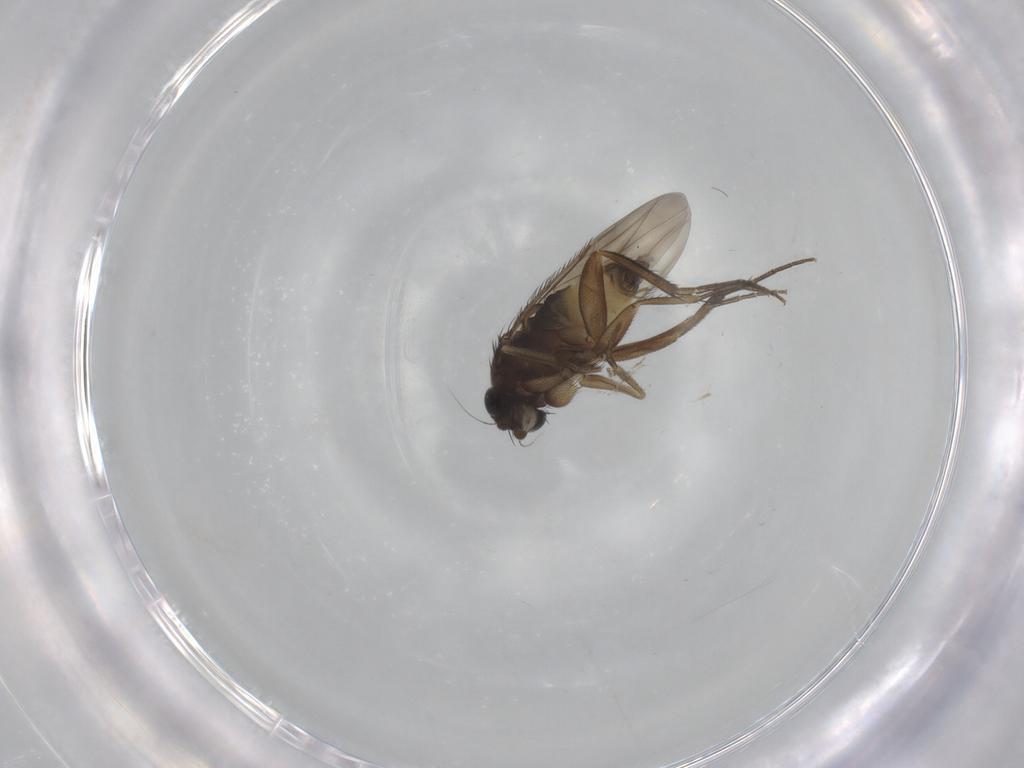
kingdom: Animalia
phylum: Arthropoda
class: Insecta
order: Diptera
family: Phoridae
